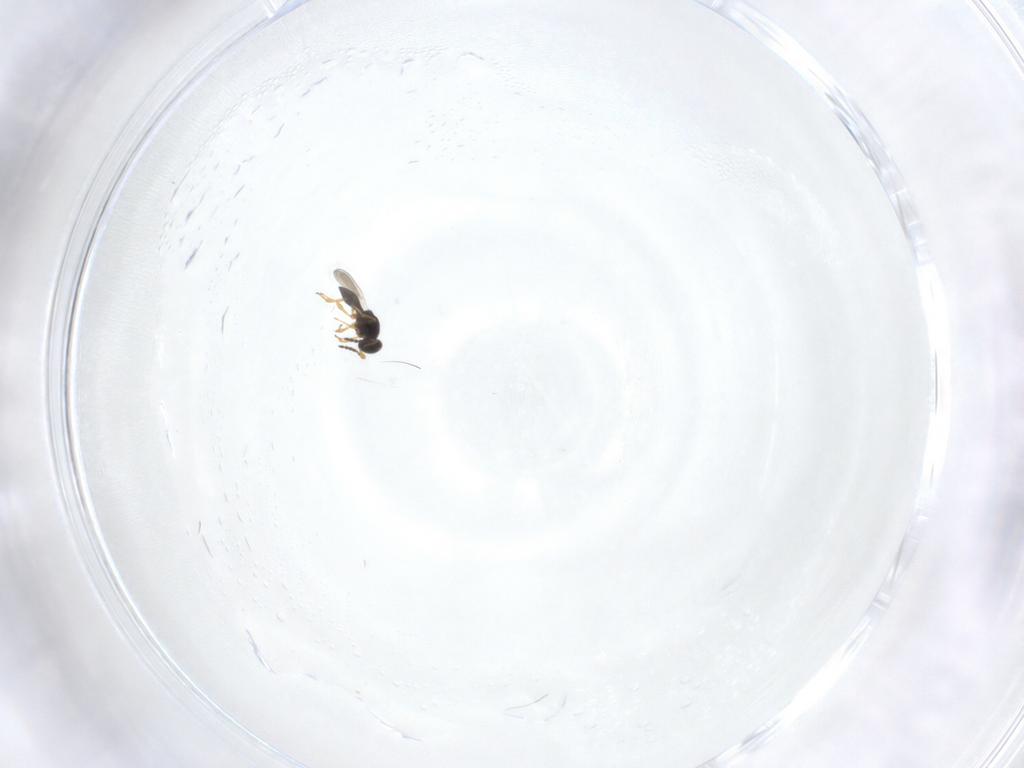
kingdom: Animalia
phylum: Arthropoda
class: Insecta
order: Hymenoptera
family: Platygastridae
